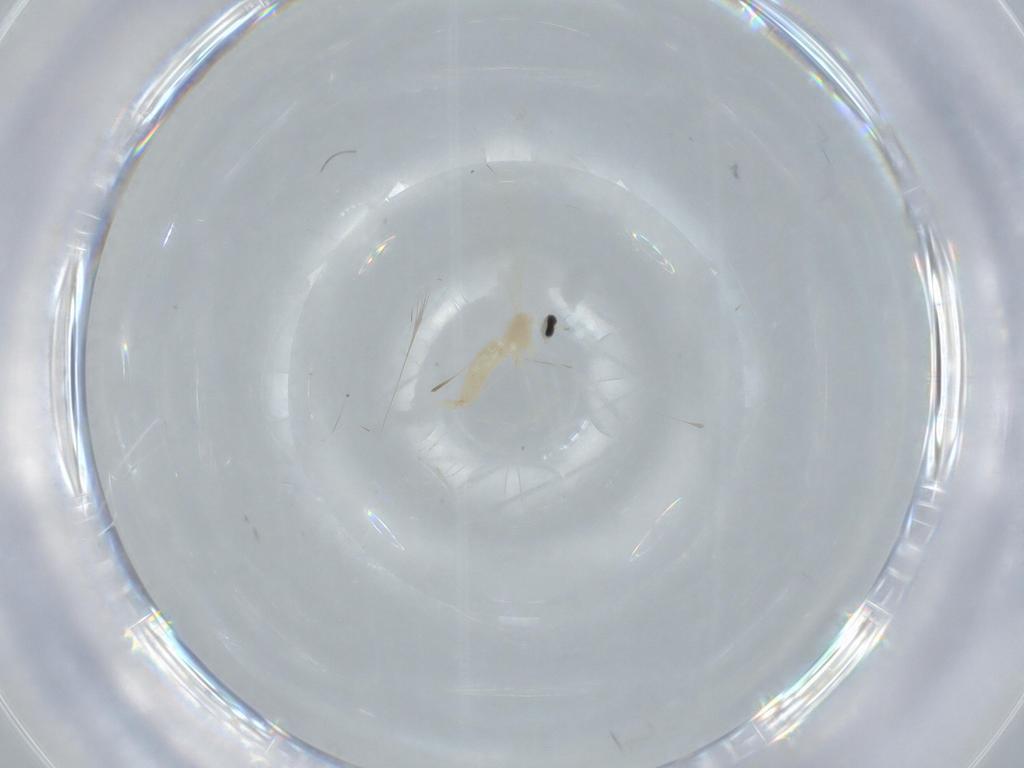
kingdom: Animalia
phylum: Arthropoda
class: Insecta
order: Diptera
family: Cecidomyiidae
